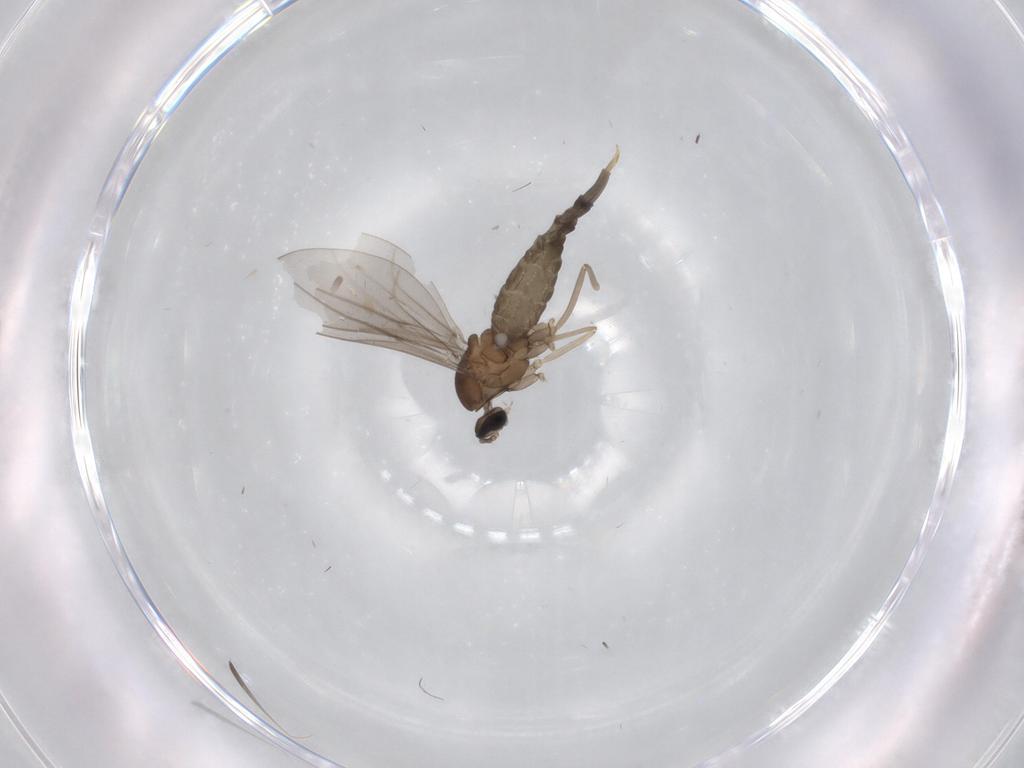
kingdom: Animalia
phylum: Arthropoda
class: Insecta
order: Diptera
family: Cecidomyiidae
